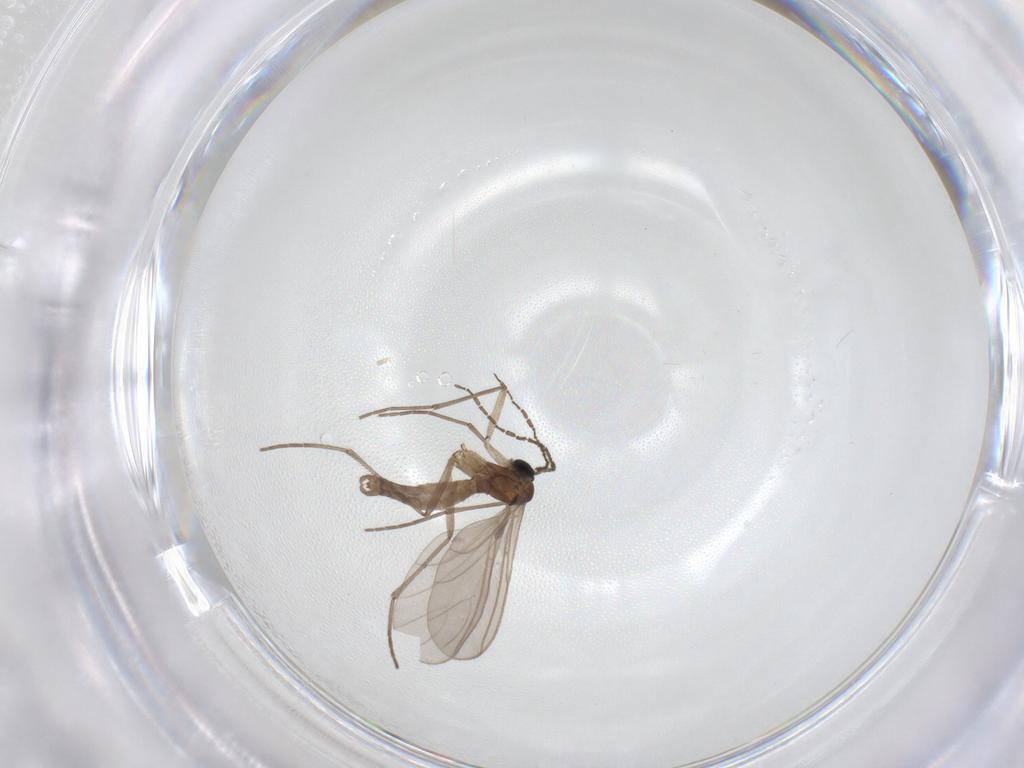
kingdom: Animalia
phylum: Arthropoda
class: Insecta
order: Diptera
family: Sciaridae
